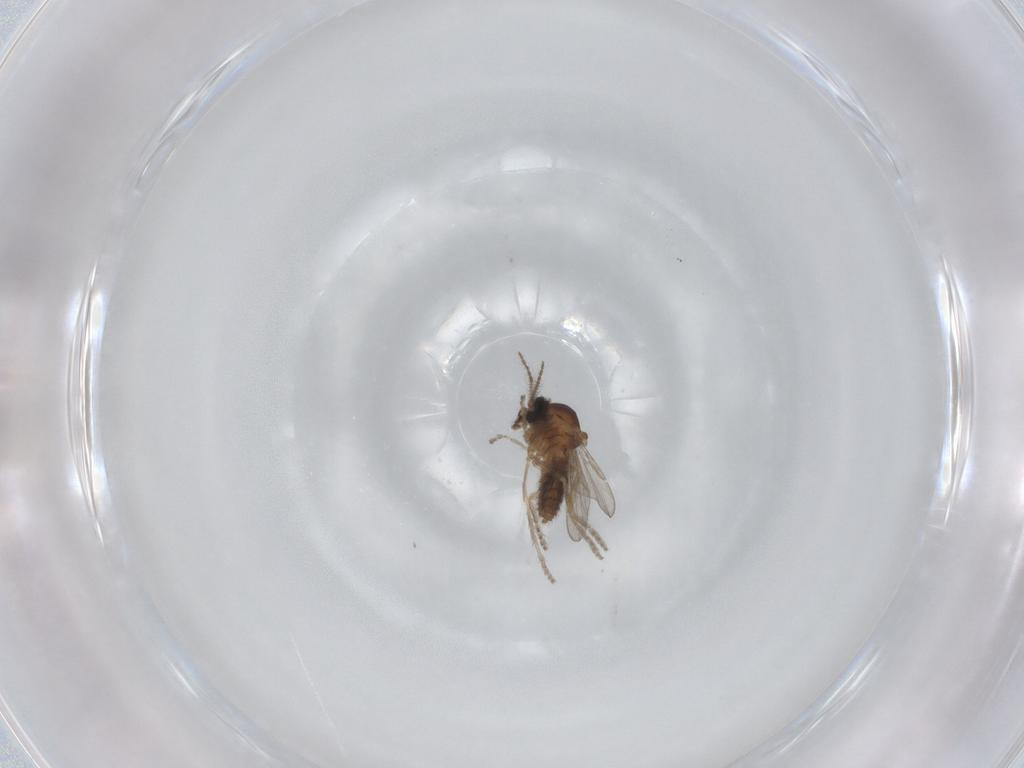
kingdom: Animalia
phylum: Arthropoda
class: Insecta
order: Diptera
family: Ceratopogonidae
